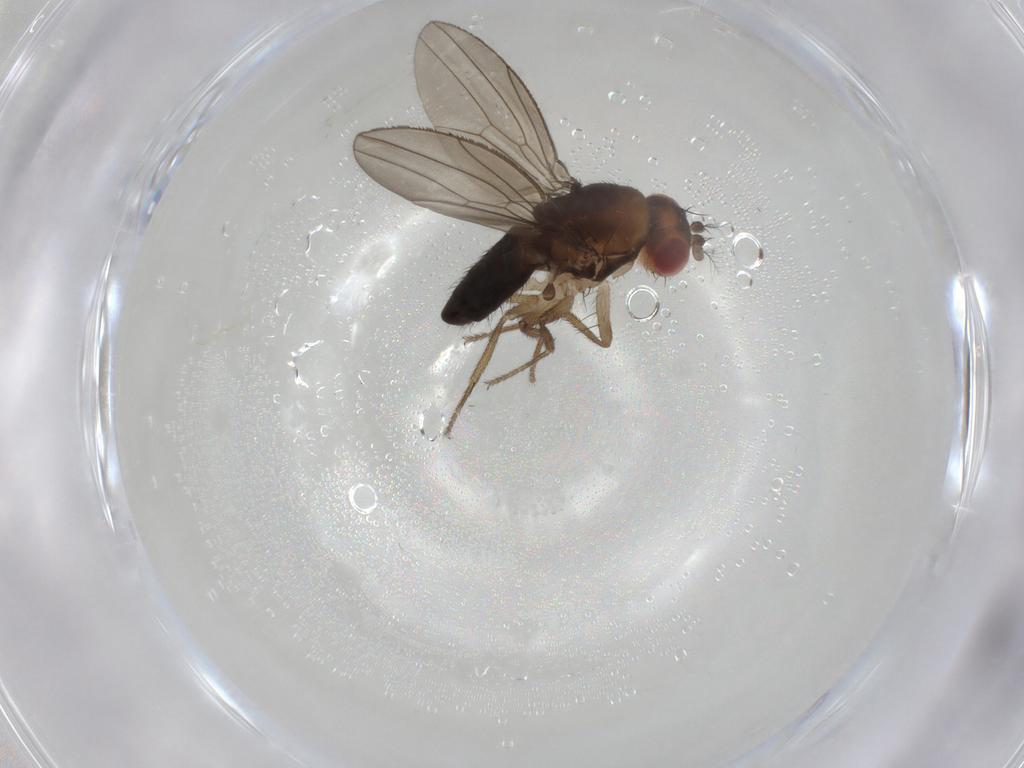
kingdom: Animalia
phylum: Arthropoda
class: Insecta
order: Diptera
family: Drosophilidae
